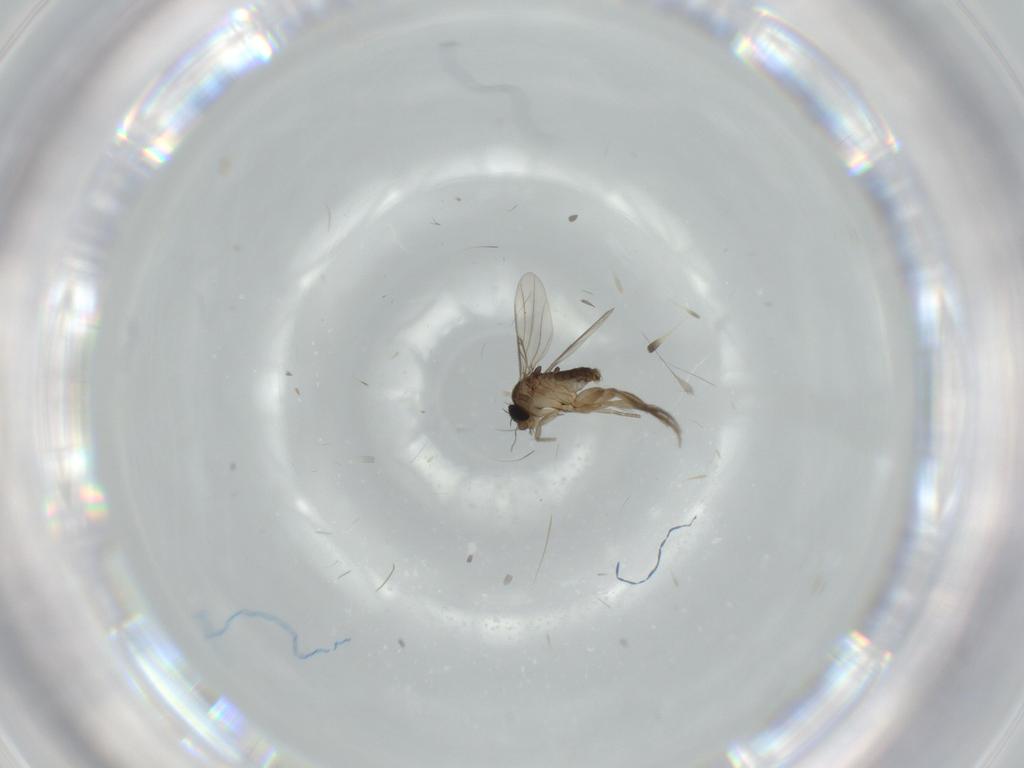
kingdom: Animalia
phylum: Arthropoda
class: Insecta
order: Diptera
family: Phoridae
